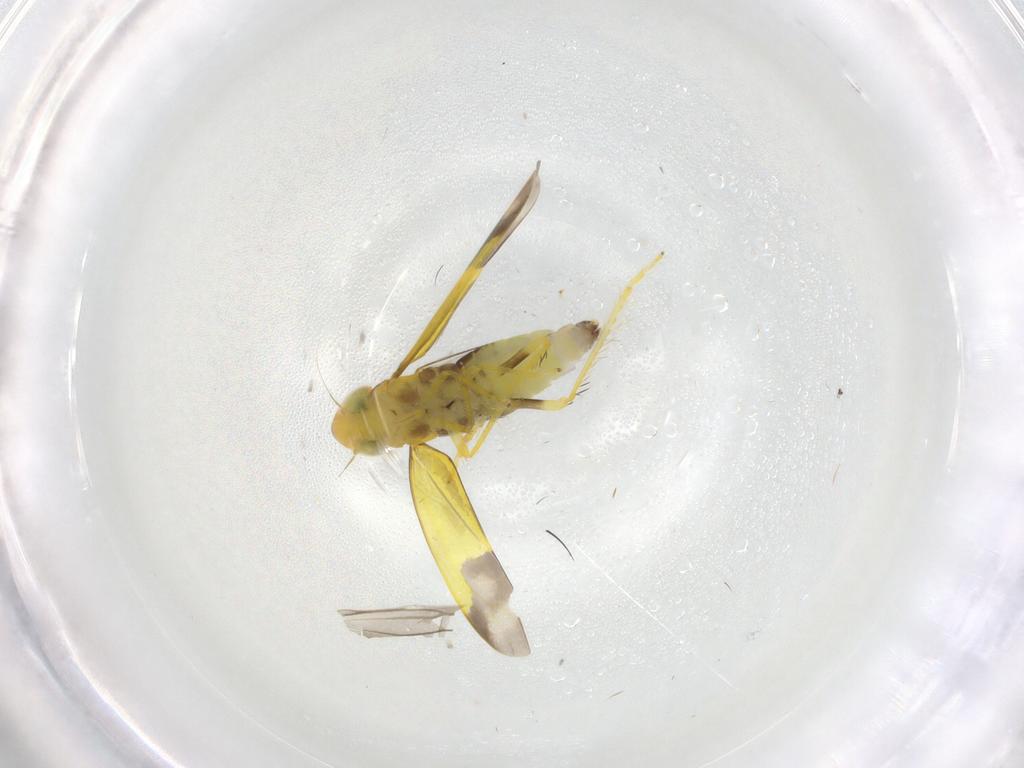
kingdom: Animalia
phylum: Arthropoda
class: Insecta
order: Hemiptera
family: Cicadellidae
